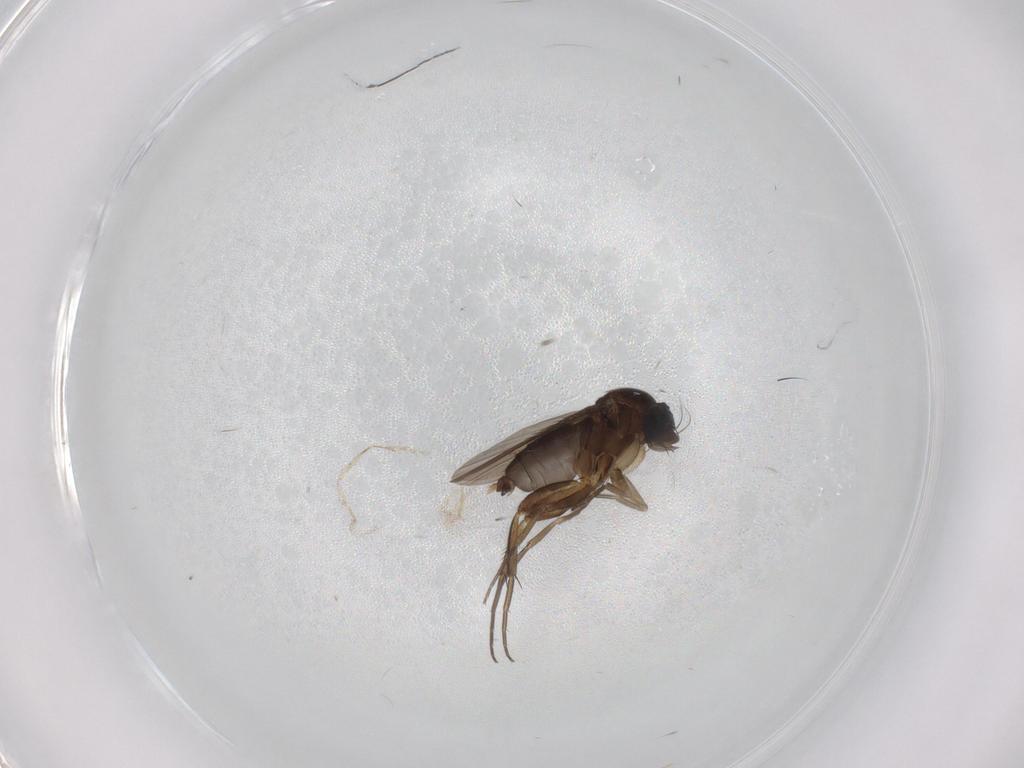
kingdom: Animalia
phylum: Arthropoda
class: Insecta
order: Diptera
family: Phoridae
